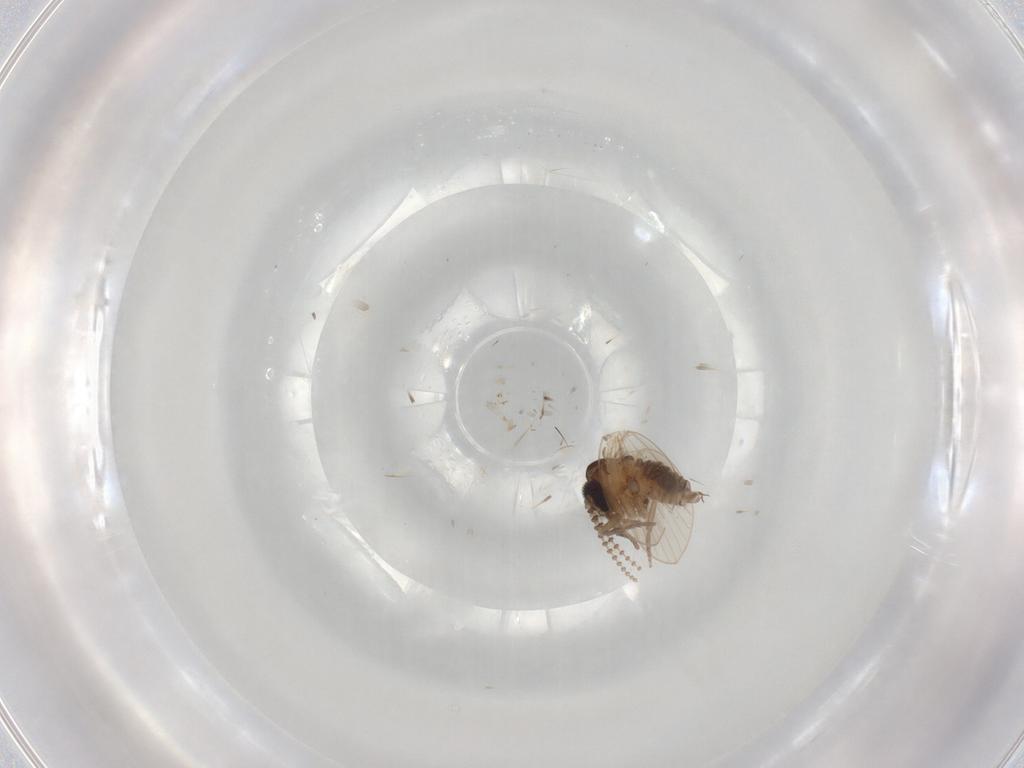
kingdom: Animalia
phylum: Arthropoda
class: Insecta
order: Diptera
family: Psychodidae
